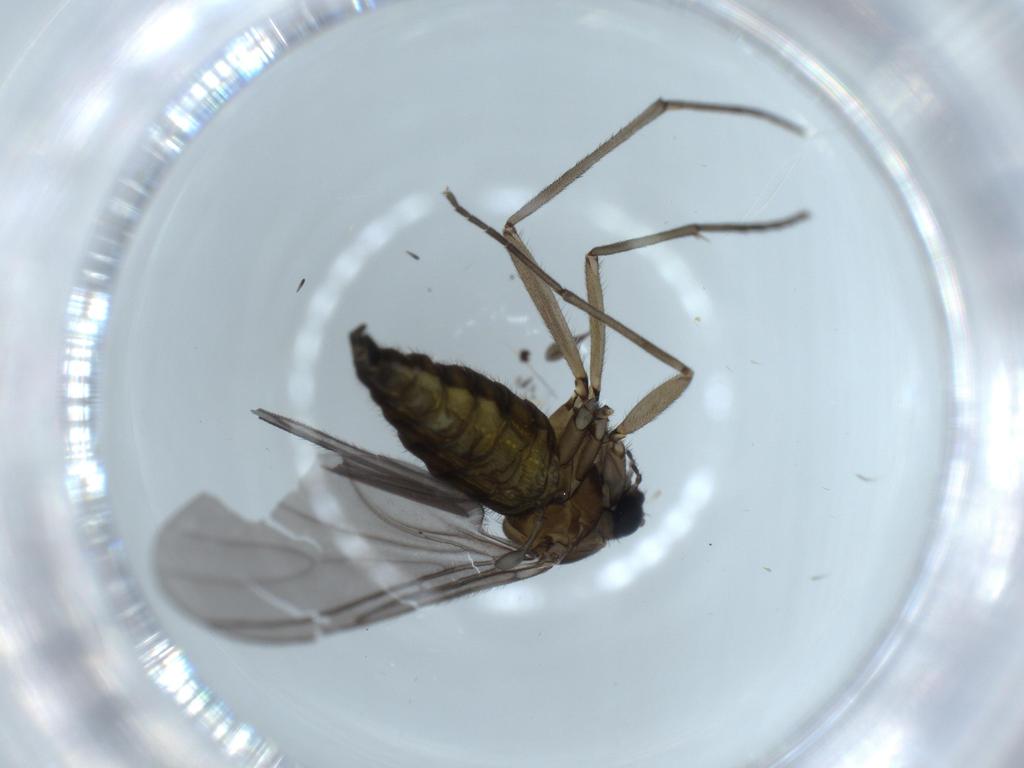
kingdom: Animalia
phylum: Arthropoda
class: Insecta
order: Diptera
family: Sciaridae
